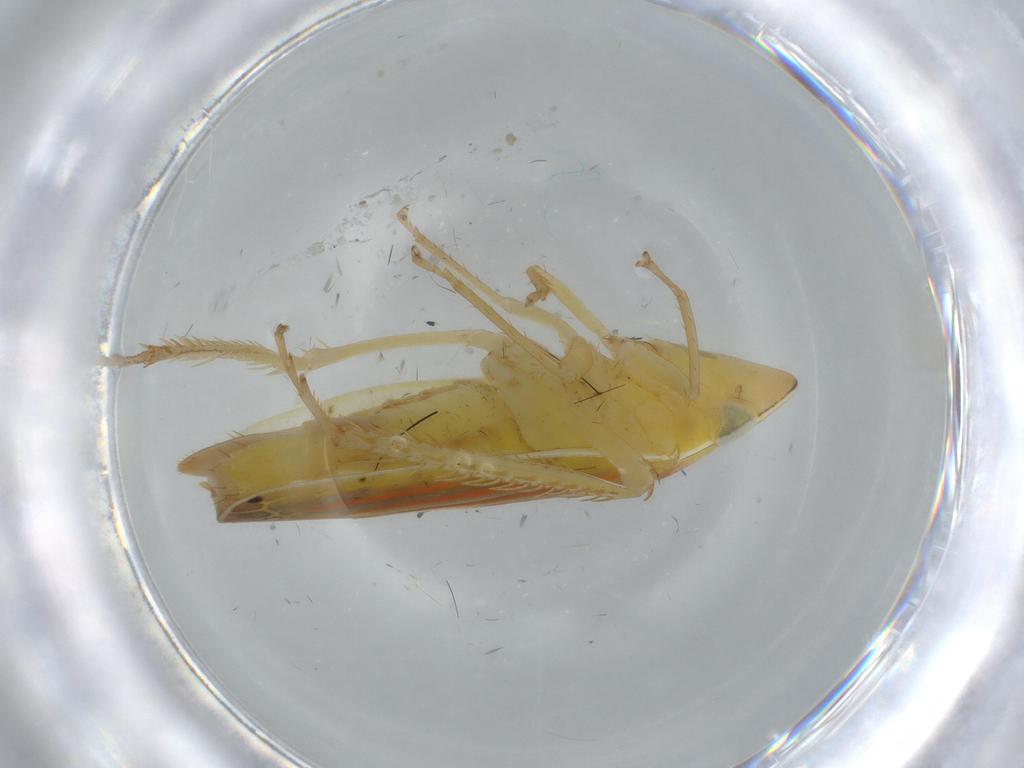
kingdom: Animalia
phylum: Arthropoda
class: Insecta
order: Hemiptera
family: Cicadellidae
